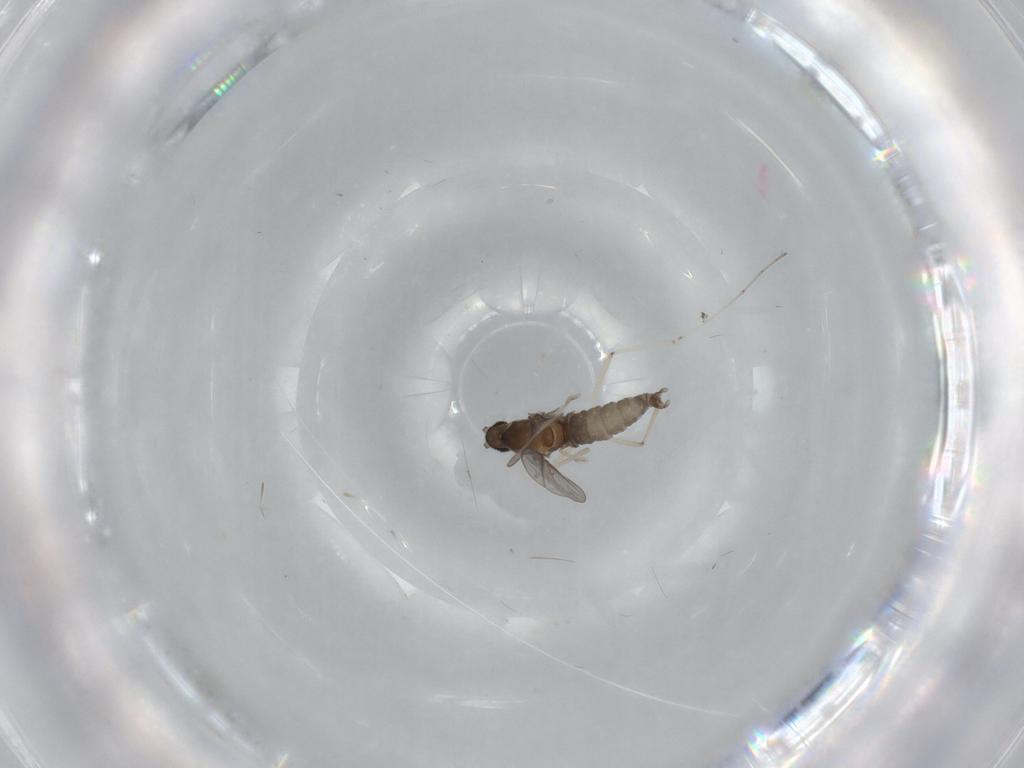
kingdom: Animalia
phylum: Arthropoda
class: Insecta
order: Diptera
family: Cecidomyiidae
